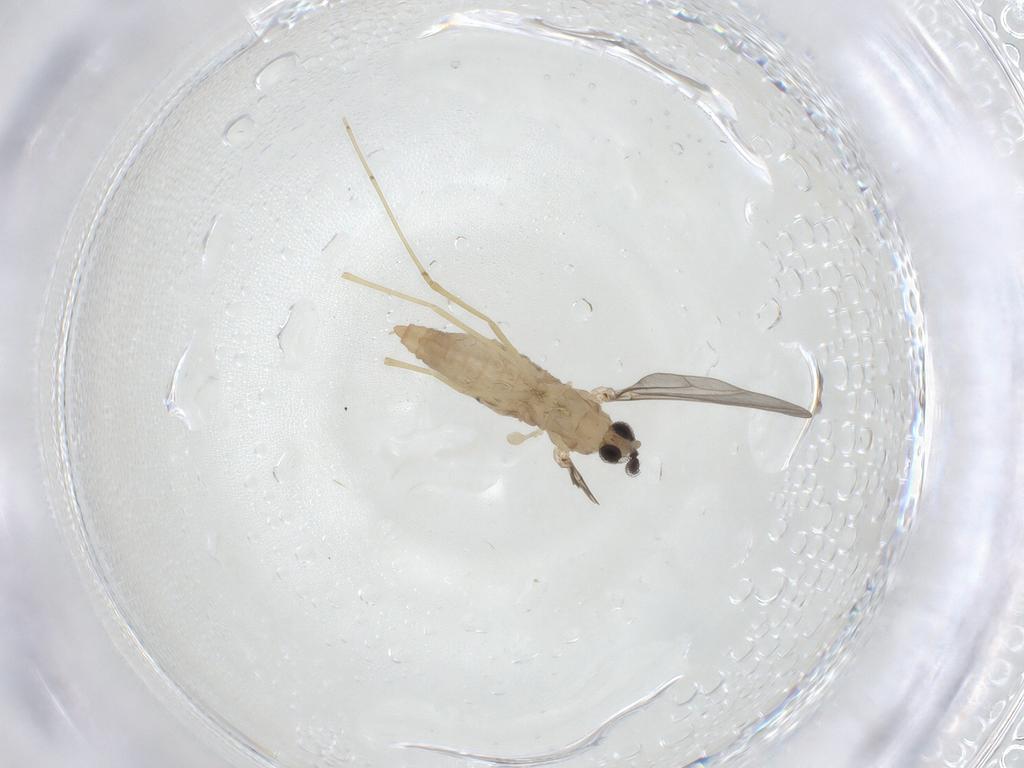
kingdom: Animalia
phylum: Arthropoda
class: Insecta
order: Diptera
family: Cecidomyiidae
